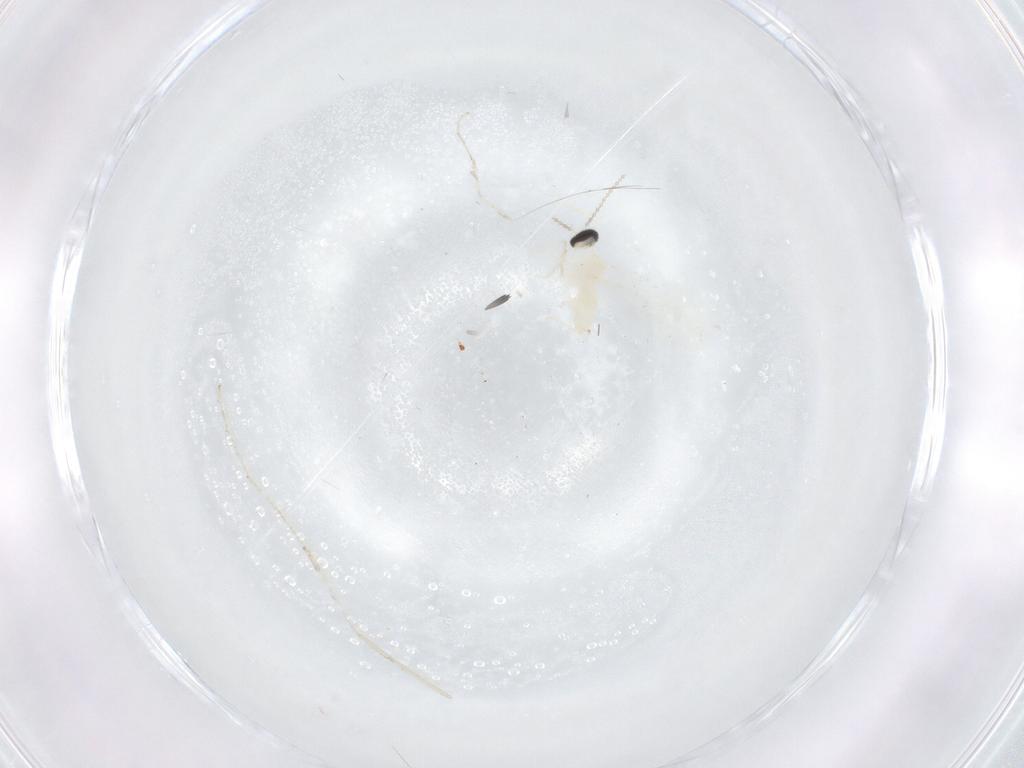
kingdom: Animalia
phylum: Arthropoda
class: Insecta
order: Diptera
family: Cecidomyiidae
